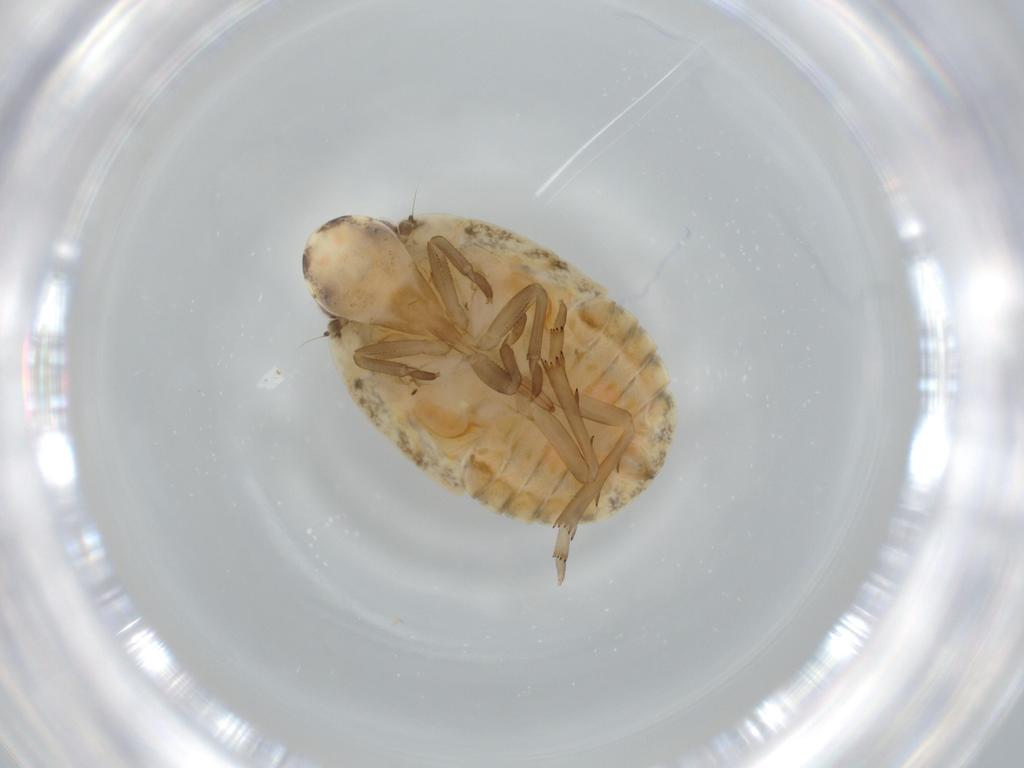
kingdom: Animalia
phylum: Arthropoda
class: Insecta
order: Hemiptera
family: Flatidae
